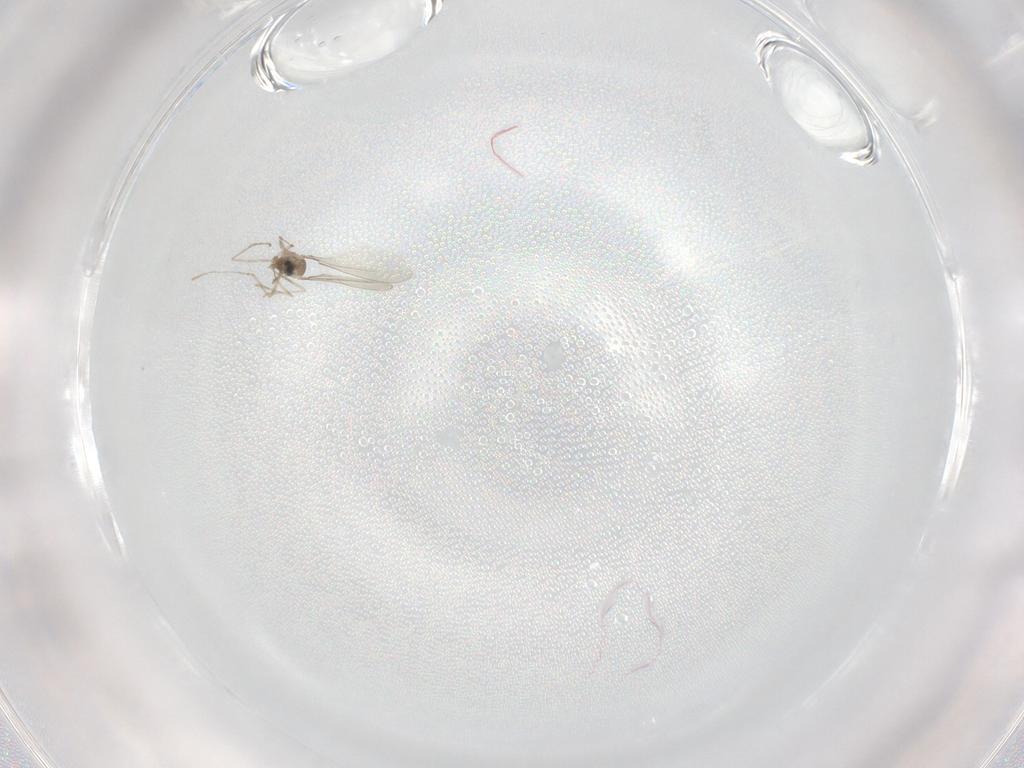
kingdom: Animalia
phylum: Arthropoda
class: Insecta
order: Diptera
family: Cecidomyiidae
